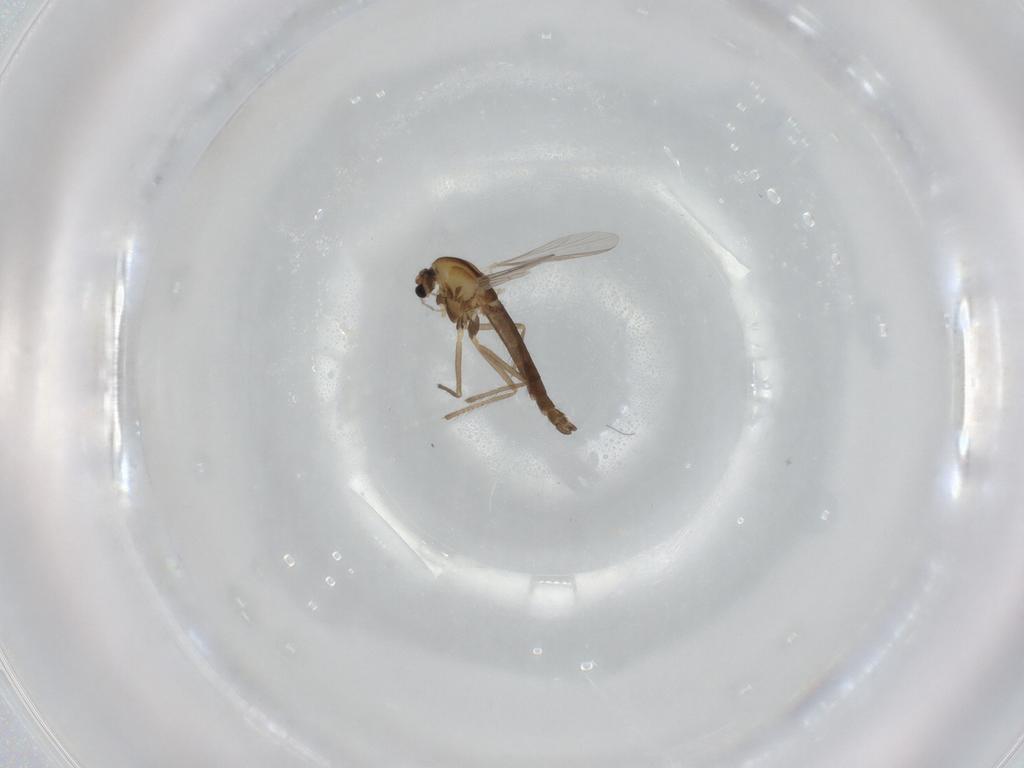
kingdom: Animalia
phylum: Arthropoda
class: Insecta
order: Diptera
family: Chironomidae
